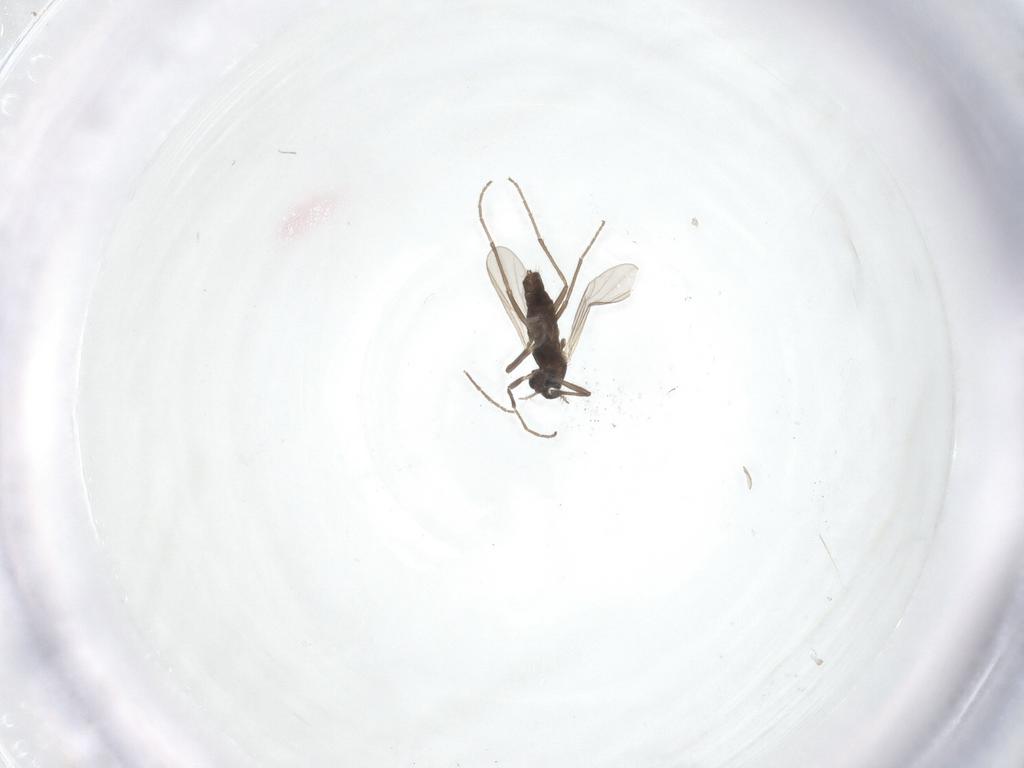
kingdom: Animalia
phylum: Arthropoda
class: Insecta
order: Diptera
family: Chironomidae
